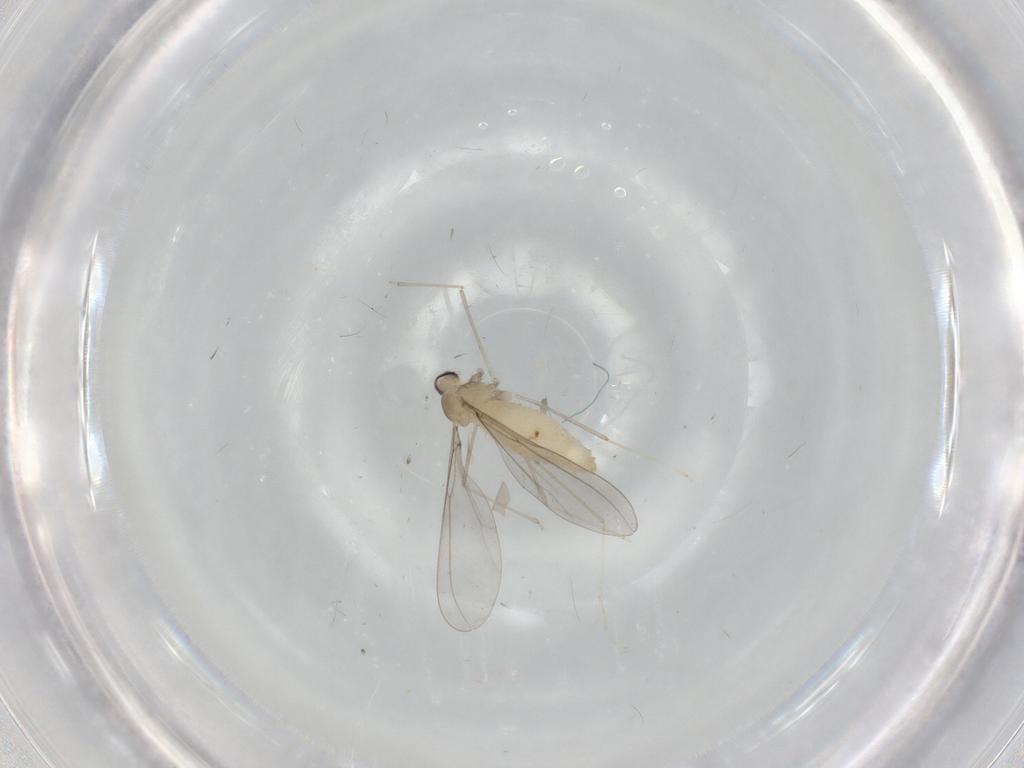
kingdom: Animalia
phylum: Arthropoda
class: Insecta
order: Diptera
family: Cecidomyiidae
